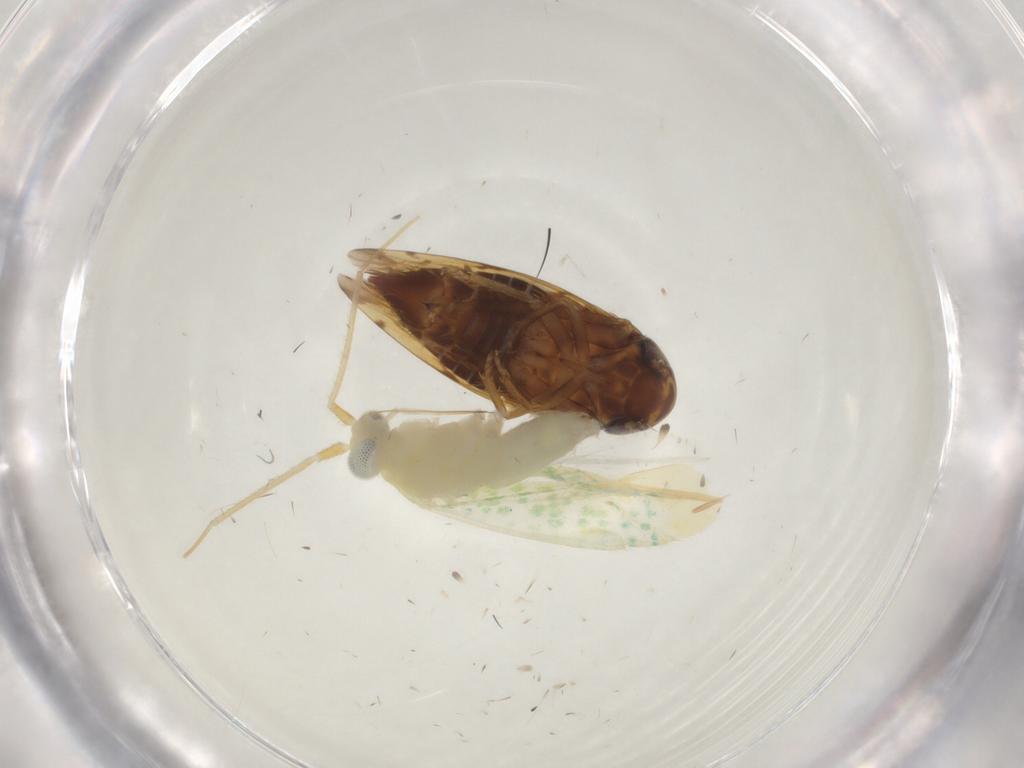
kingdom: Animalia
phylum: Arthropoda
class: Insecta
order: Hemiptera
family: Miridae
